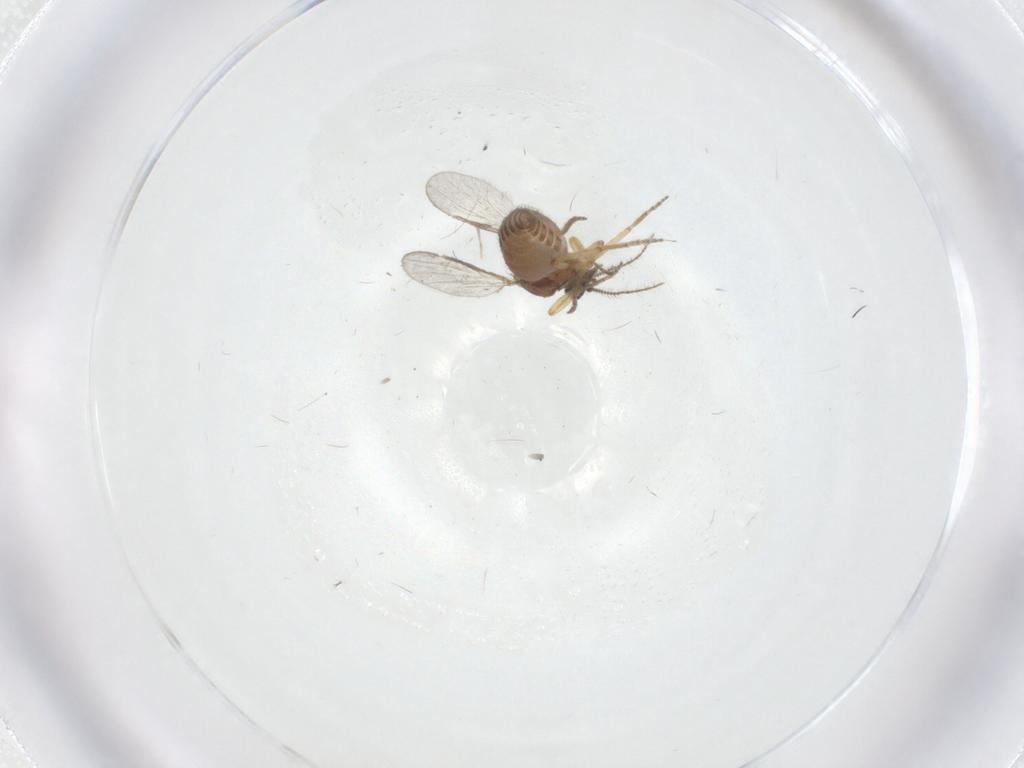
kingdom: Animalia
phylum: Arthropoda
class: Insecta
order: Diptera
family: Ceratopogonidae
